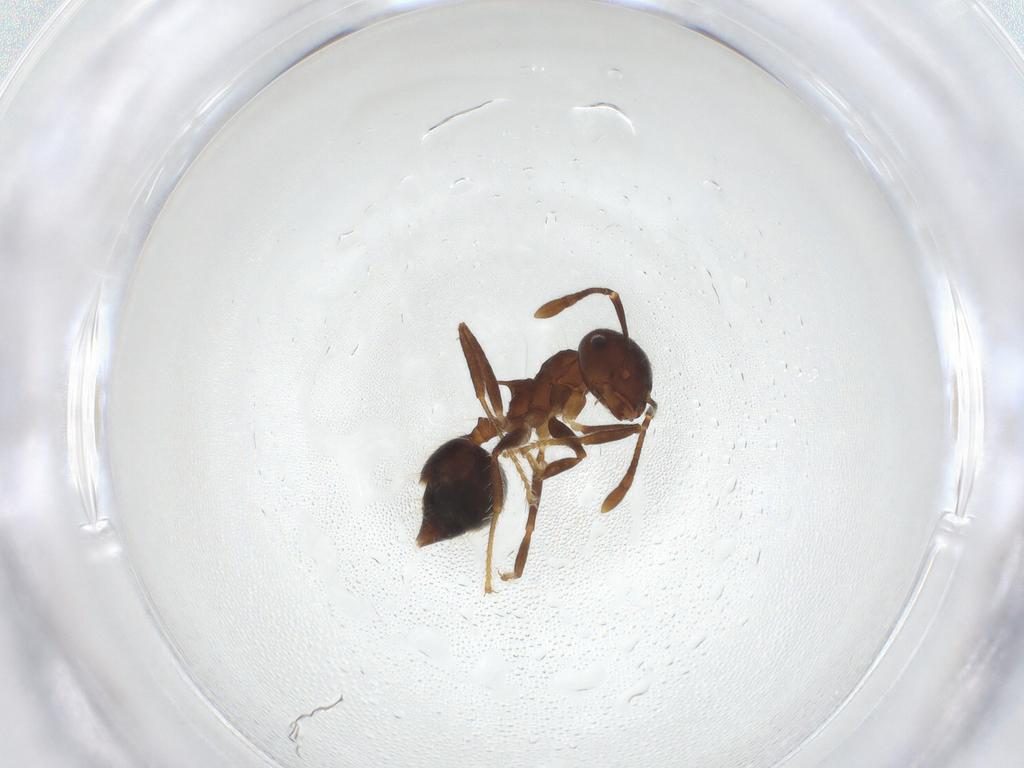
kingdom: Animalia
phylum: Arthropoda
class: Insecta
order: Hymenoptera
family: Formicidae
